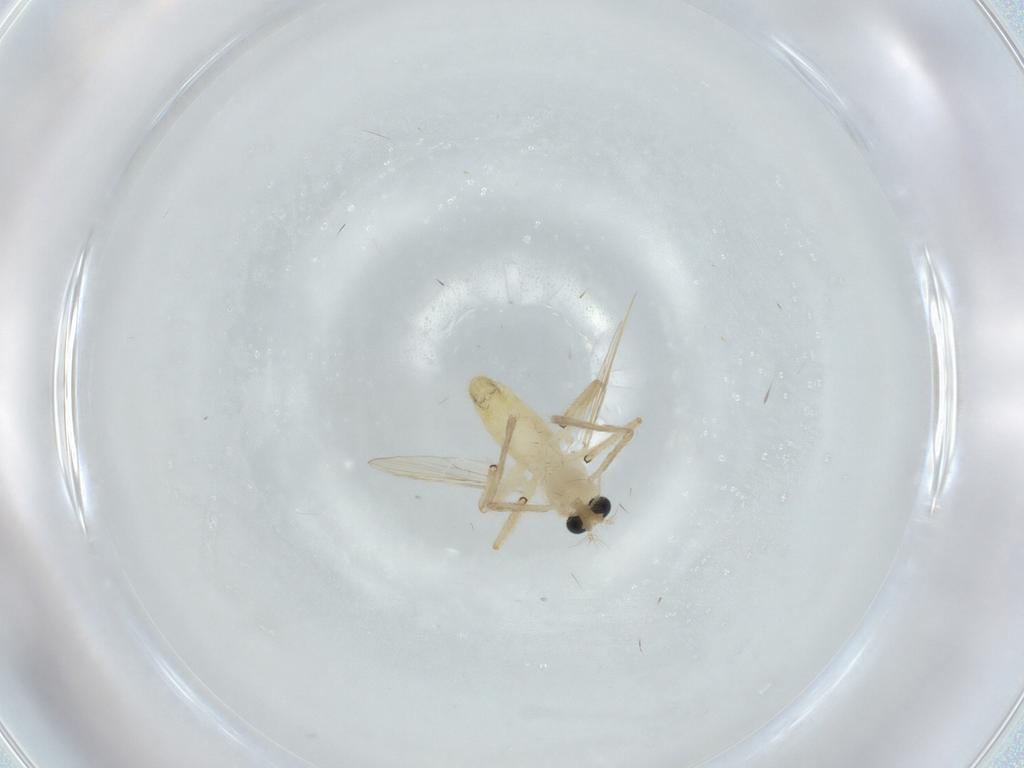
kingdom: Animalia
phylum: Arthropoda
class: Insecta
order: Diptera
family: Chironomidae
